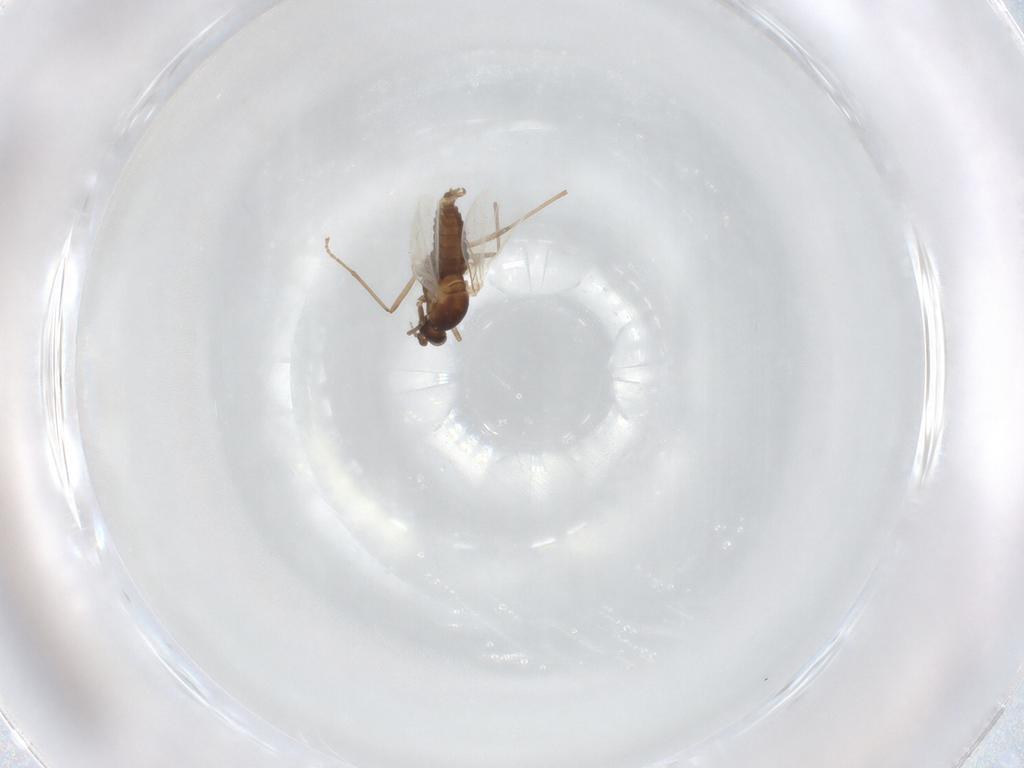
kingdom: Animalia
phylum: Arthropoda
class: Insecta
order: Diptera
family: Cecidomyiidae
